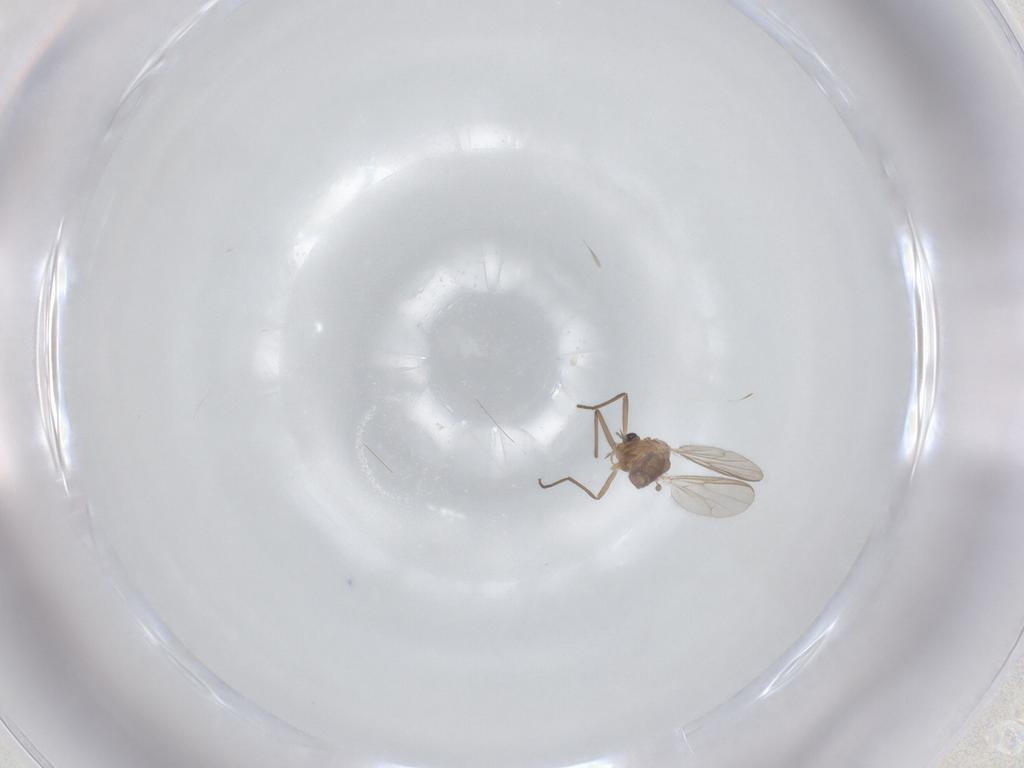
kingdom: Animalia
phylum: Arthropoda
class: Insecta
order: Diptera
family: Chironomidae
